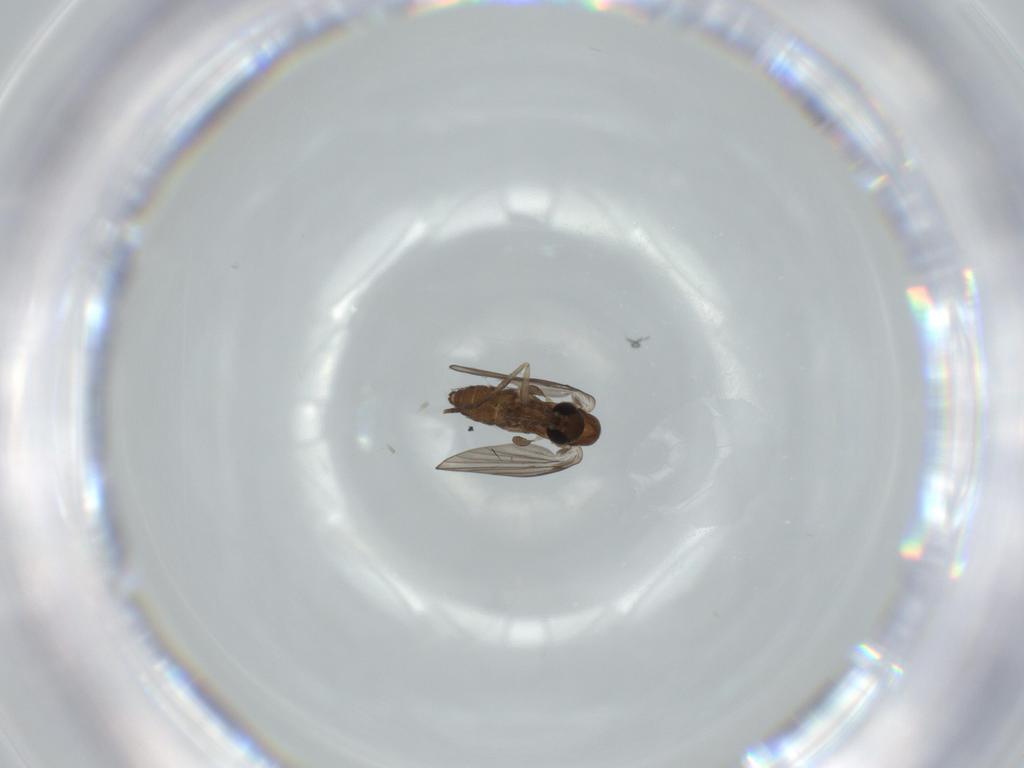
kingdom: Animalia
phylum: Arthropoda
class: Insecta
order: Diptera
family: Sciaridae
